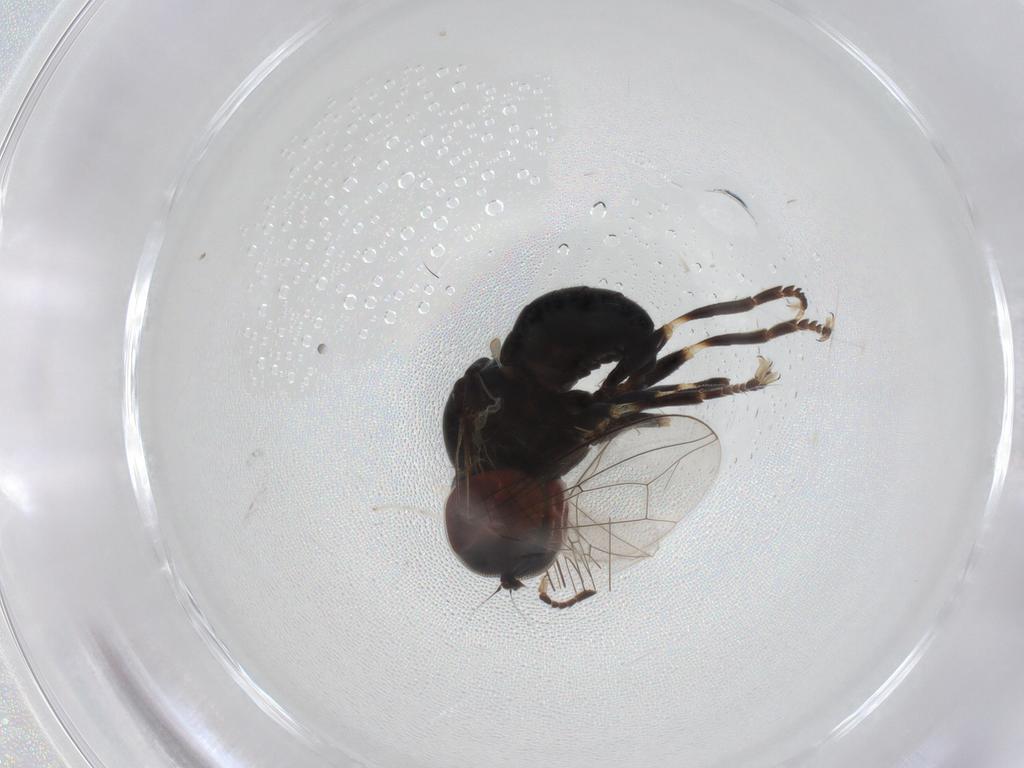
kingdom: Animalia
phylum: Arthropoda
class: Insecta
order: Diptera
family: Pipunculidae
